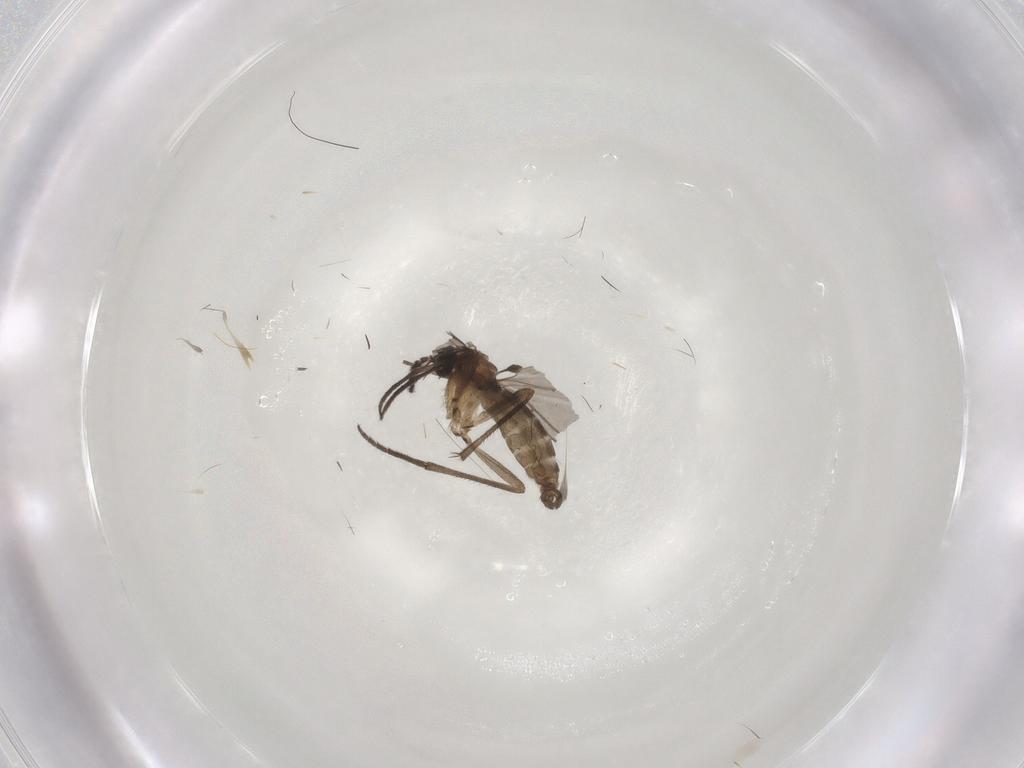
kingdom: Animalia
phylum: Arthropoda
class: Insecta
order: Diptera
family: Sciaridae
